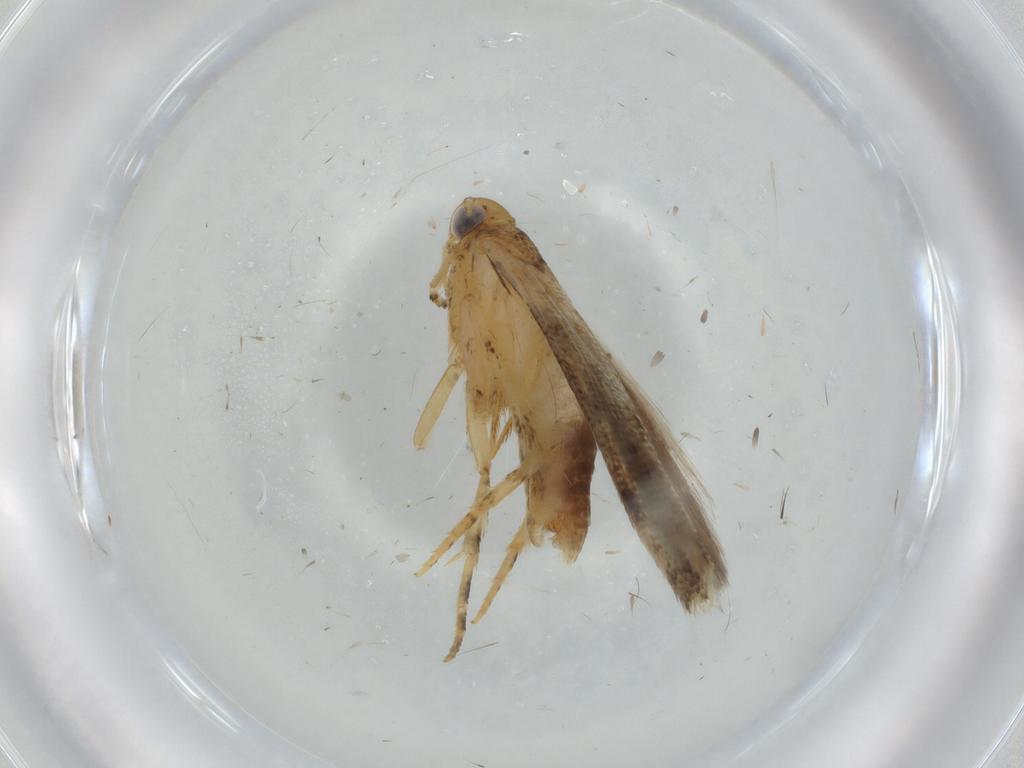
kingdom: Animalia
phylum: Arthropoda
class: Insecta
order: Lepidoptera
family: Gelechiidae
